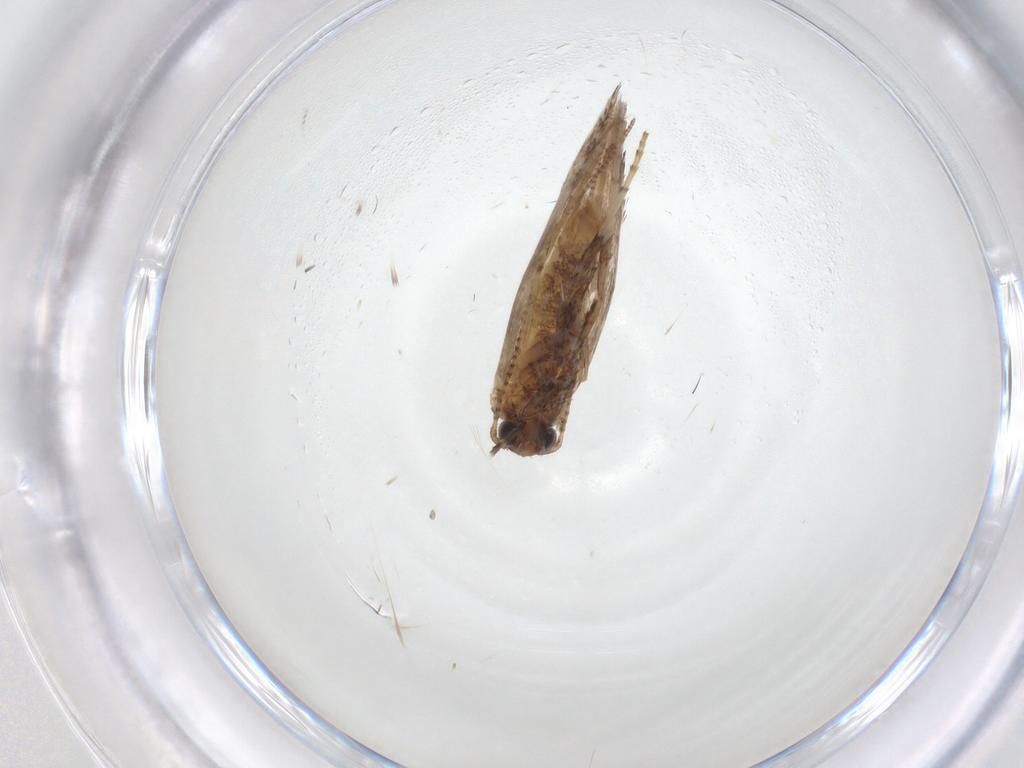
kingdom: Animalia
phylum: Arthropoda
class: Insecta
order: Lepidoptera
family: Gracillariidae
